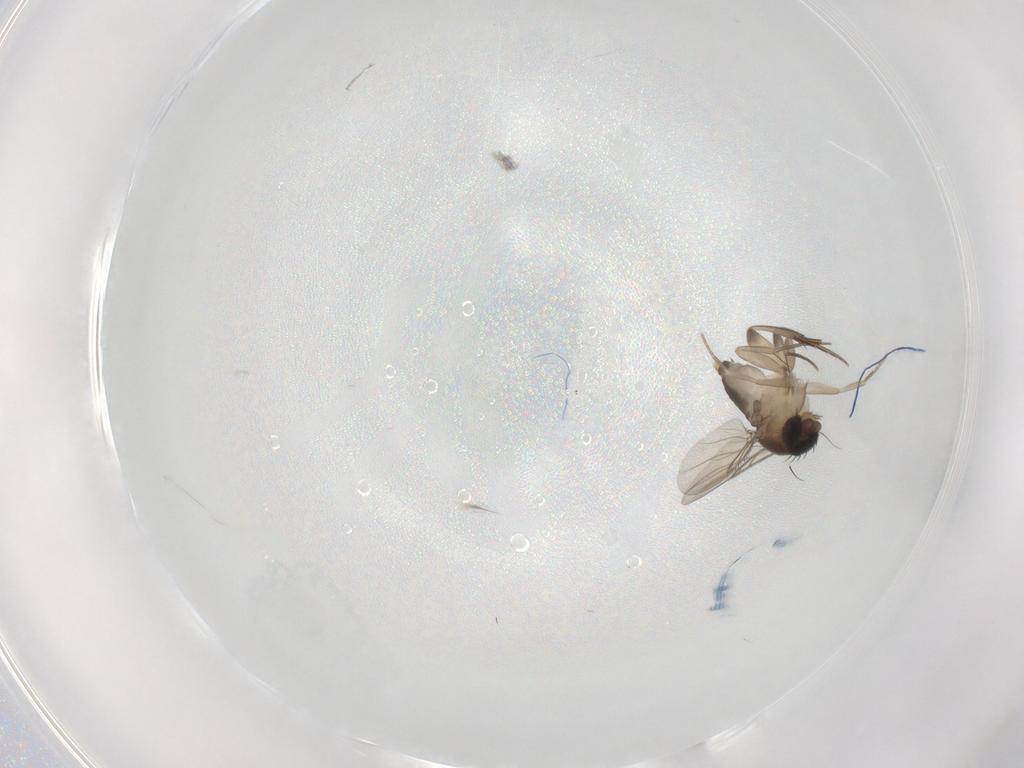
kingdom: Animalia
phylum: Arthropoda
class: Insecta
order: Diptera
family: Phoridae
